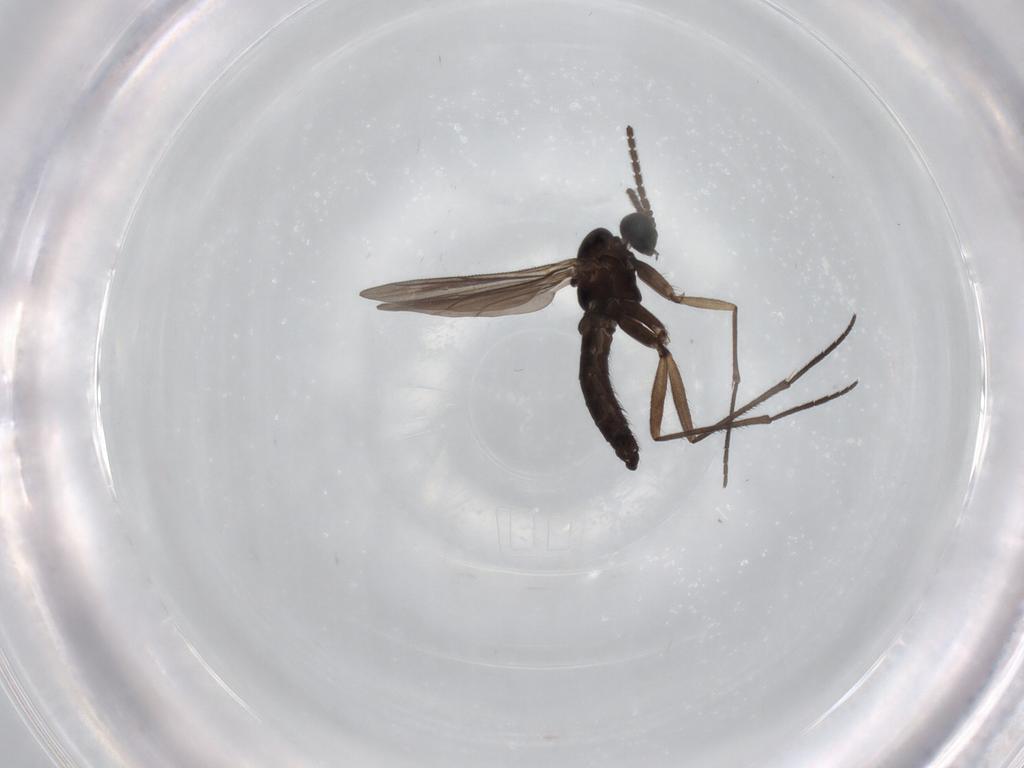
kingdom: Animalia
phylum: Arthropoda
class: Insecta
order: Diptera
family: Sciaridae
